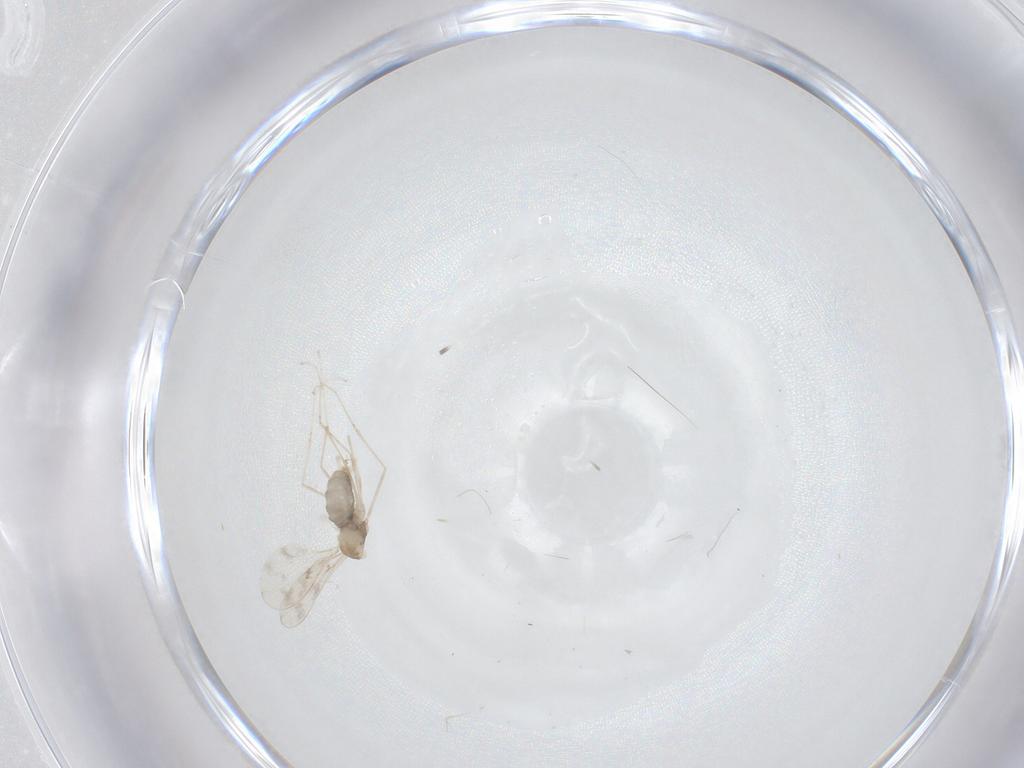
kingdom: Animalia
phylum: Arthropoda
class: Insecta
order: Diptera
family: Cecidomyiidae
